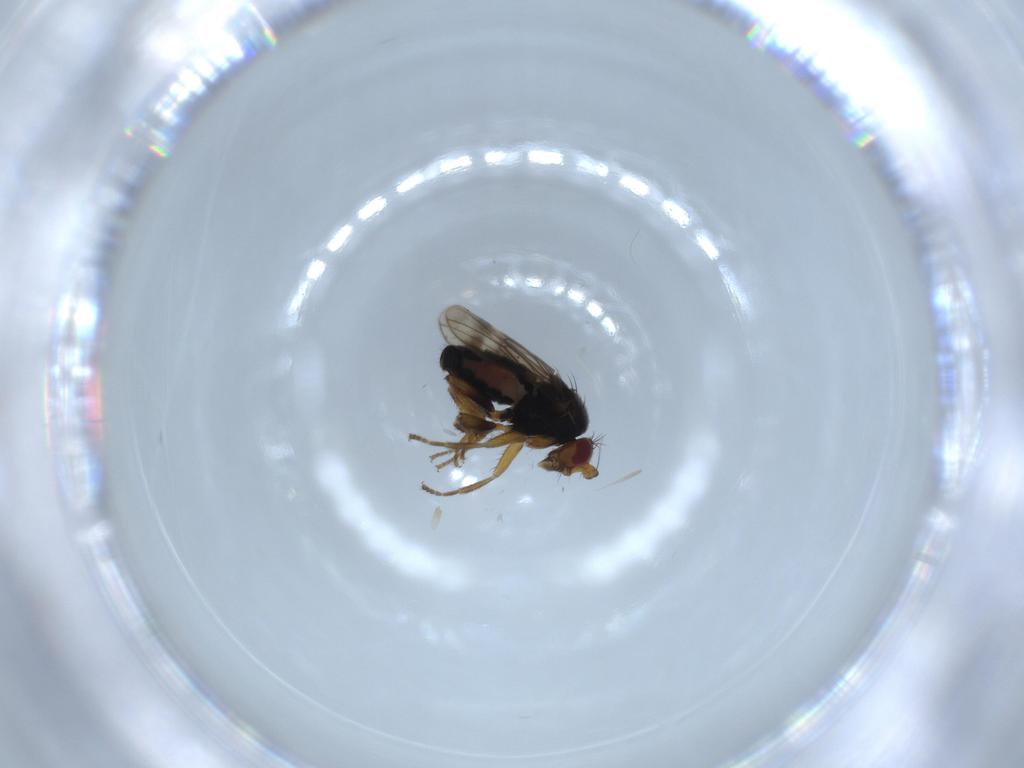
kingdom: Animalia
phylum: Arthropoda
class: Insecta
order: Diptera
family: Sphaeroceridae
